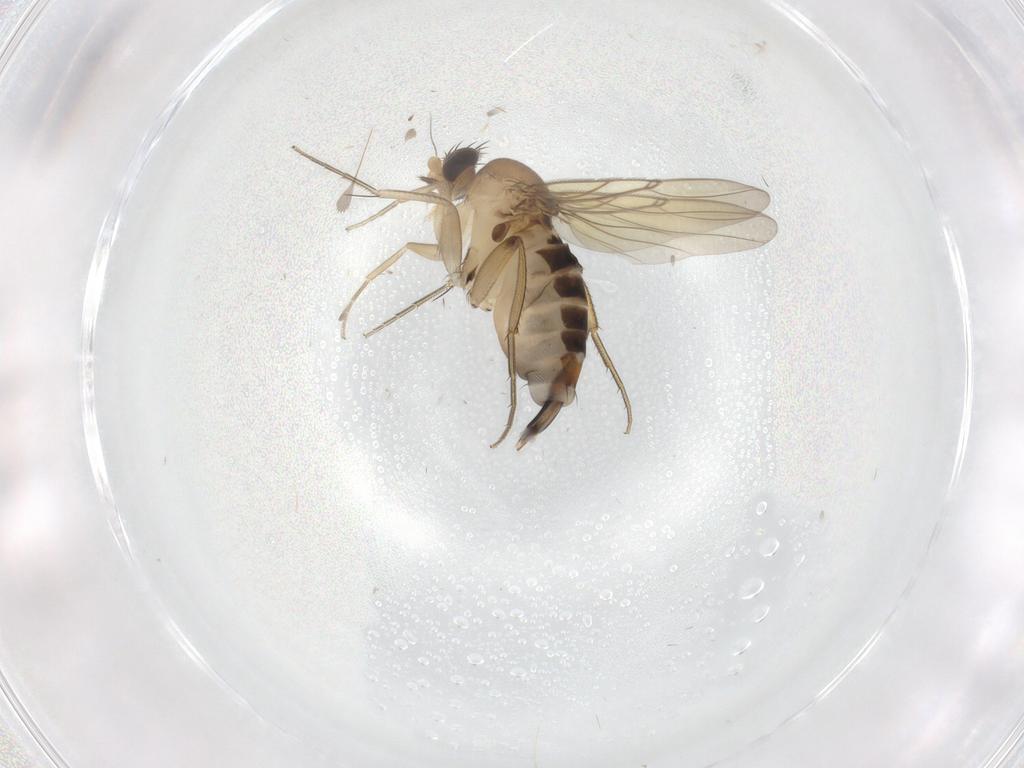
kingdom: Animalia
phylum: Arthropoda
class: Insecta
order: Diptera
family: Phoridae
